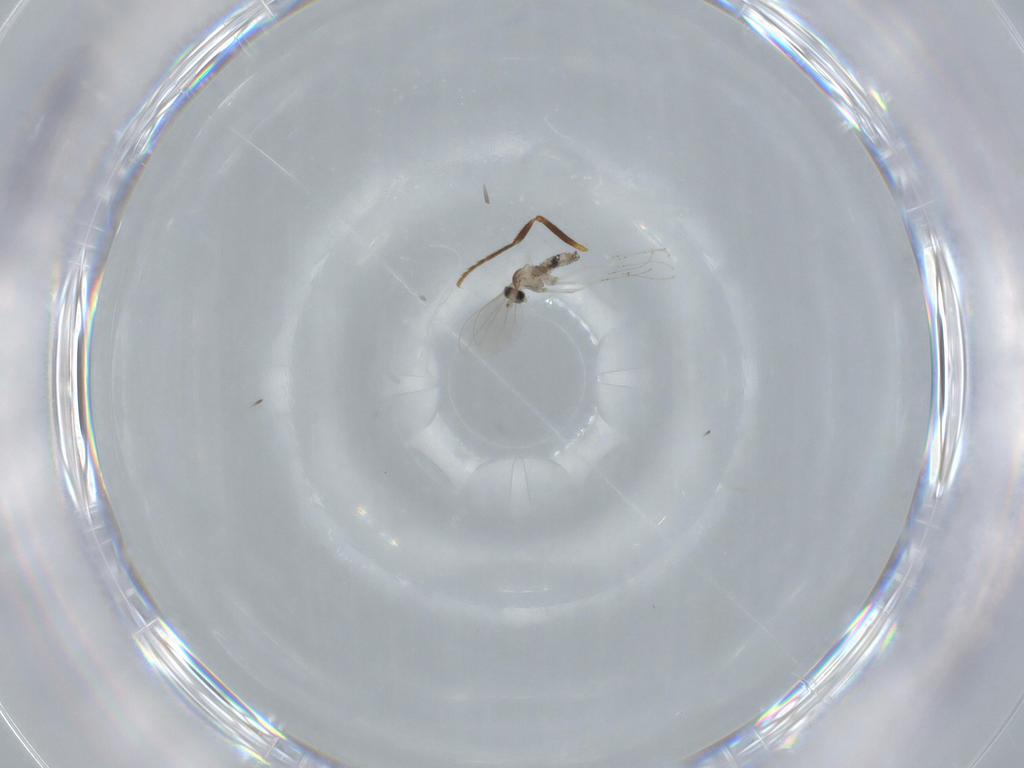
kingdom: Animalia
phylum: Arthropoda
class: Insecta
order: Diptera
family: Cecidomyiidae
